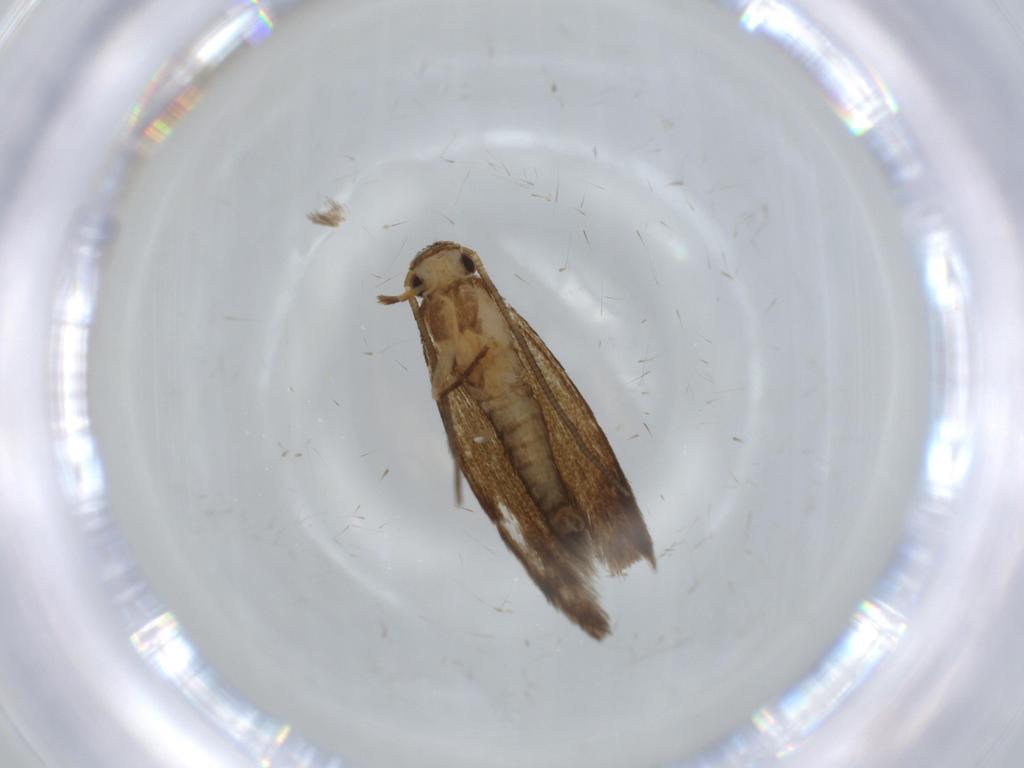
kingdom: Animalia
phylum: Arthropoda
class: Insecta
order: Lepidoptera
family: Tineidae
